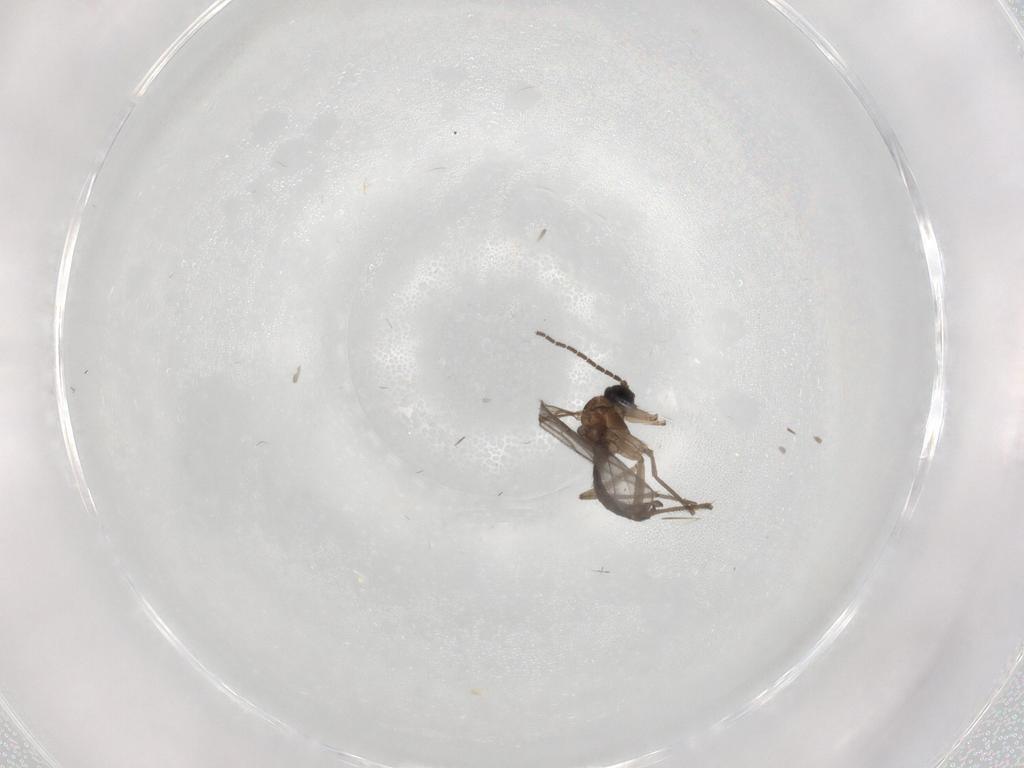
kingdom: Animalia
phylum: Arthropoda
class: Insecta
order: Diptera
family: Sciaridae
